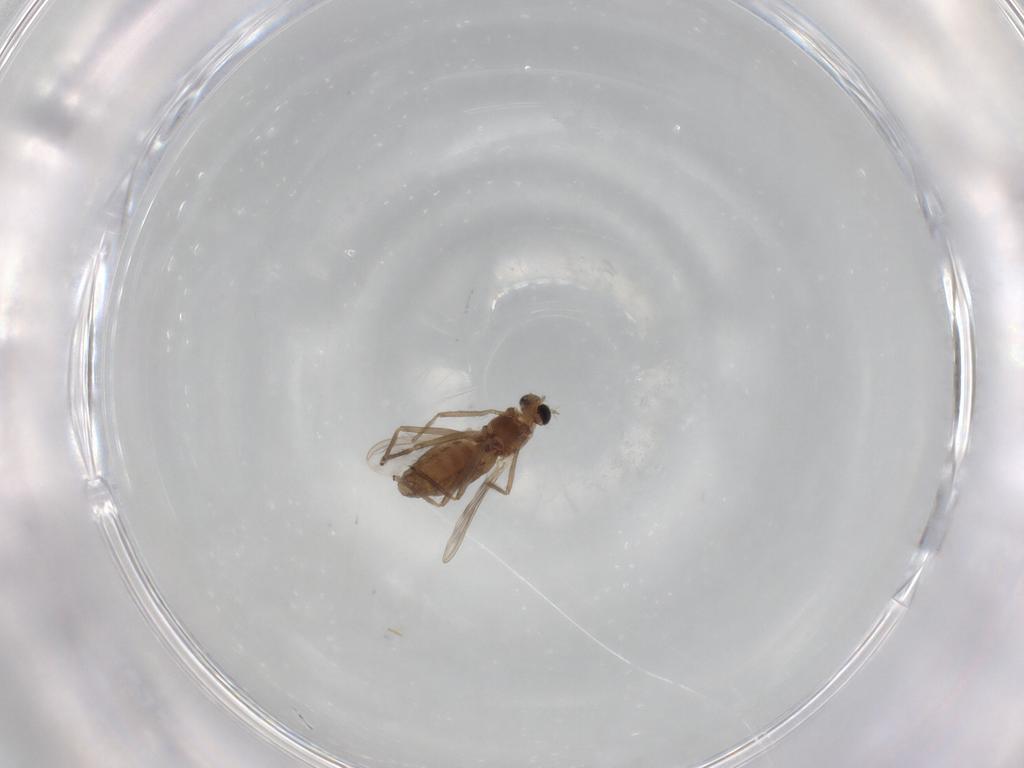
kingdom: Animalia
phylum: Arthropoda
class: Insecta
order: Diptera
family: Chironomidae
